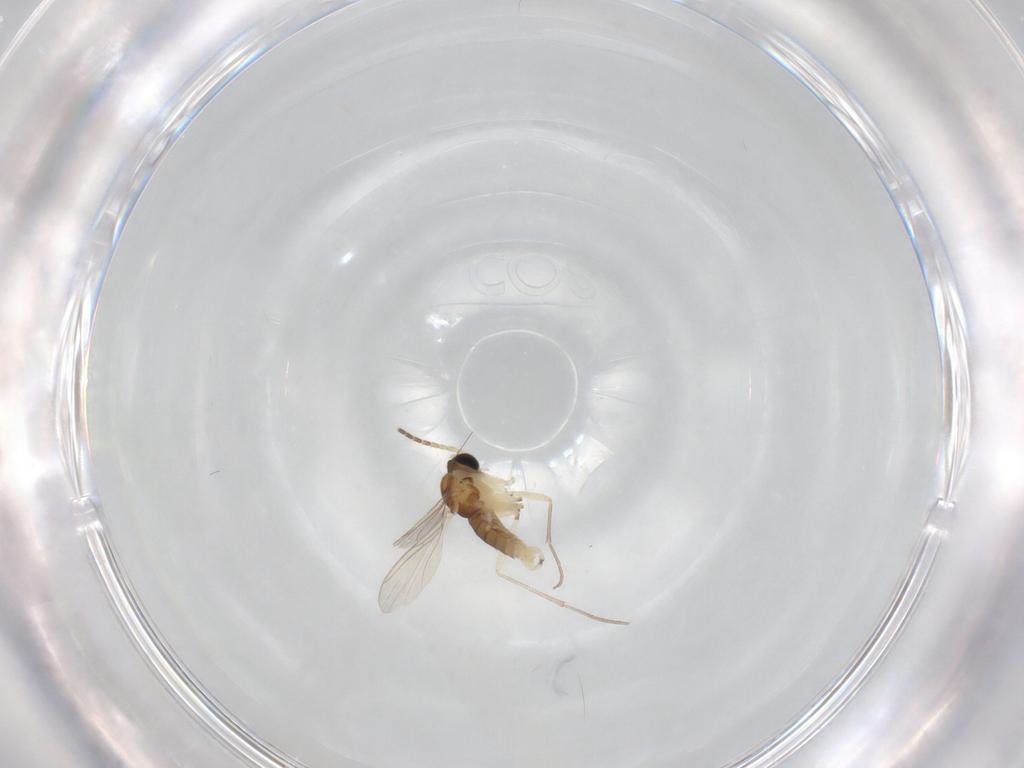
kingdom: Animalia
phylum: Arthropoda
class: Insecta
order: Diptera
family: Sciaridae
